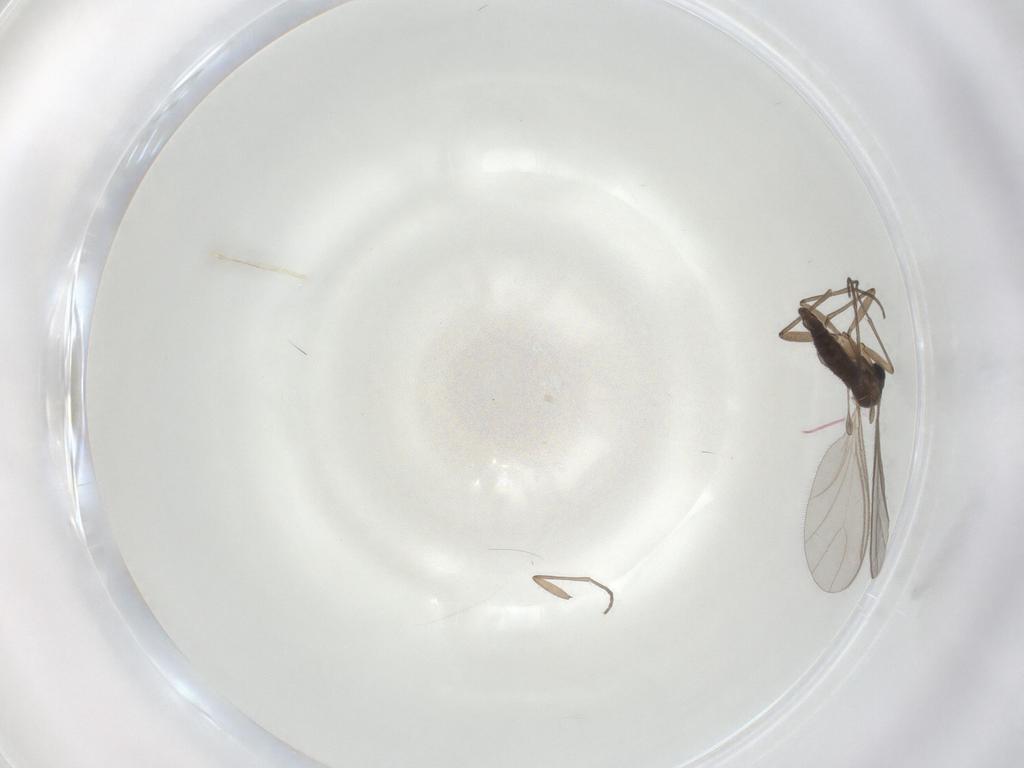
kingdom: Animalia
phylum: Arthropoda
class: Insecta
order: Diptera
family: Sciaridae
